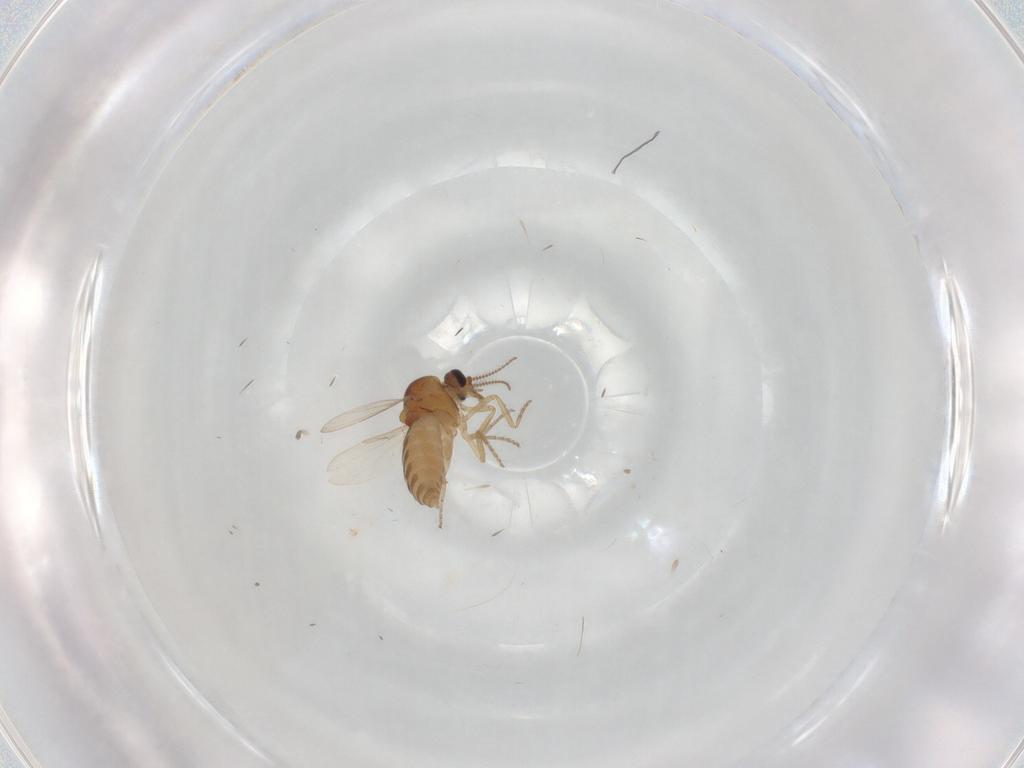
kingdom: Animalia
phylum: Arthropoda
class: Insecta
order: Diptera
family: Ceratopogonidae
